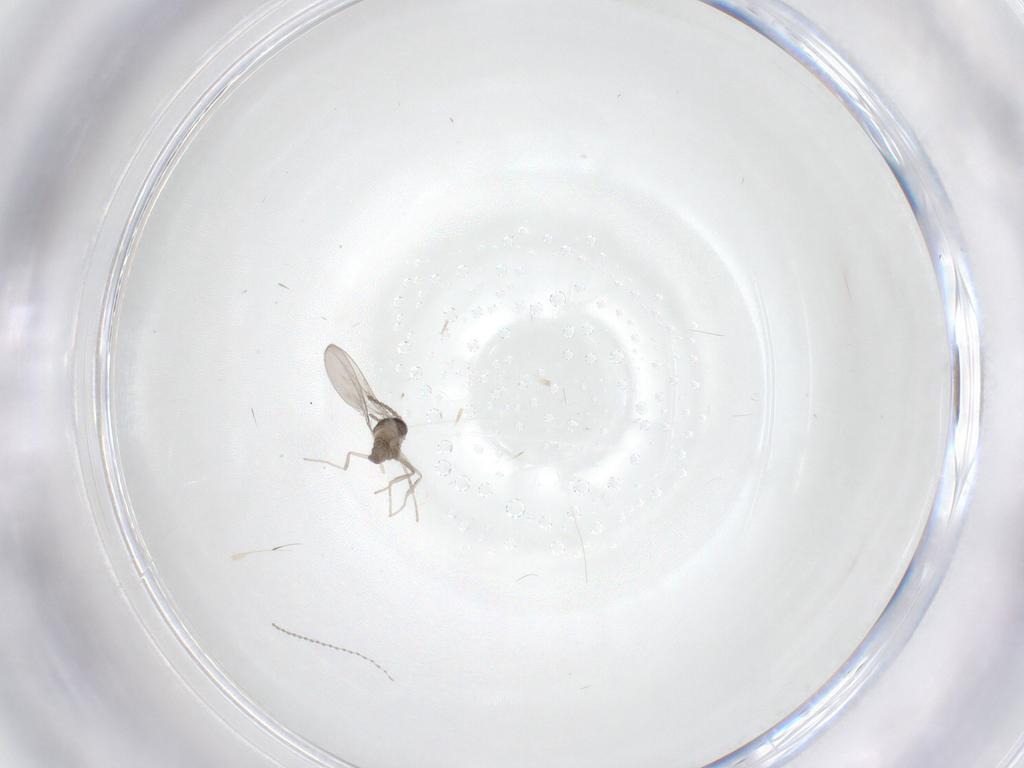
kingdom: Animalia
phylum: Arthropoda
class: Insecta
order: Diptera
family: Cecidomyiidae
